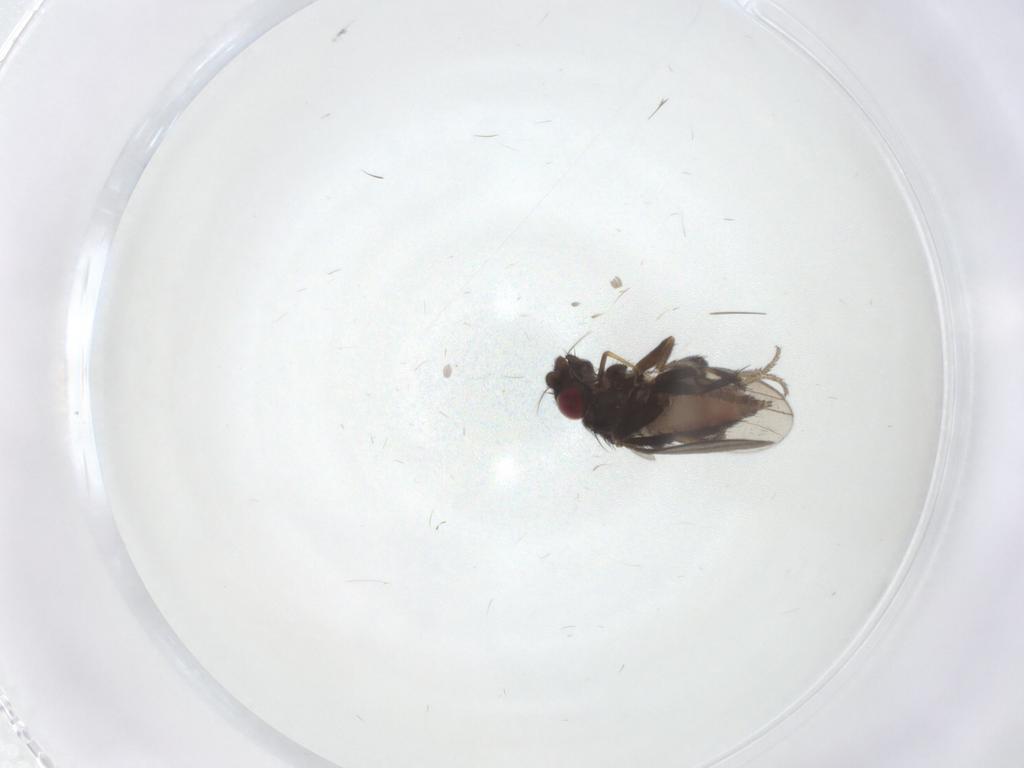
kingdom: Animalia
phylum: Arthropoda
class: Insecta
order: Diptera
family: Milichiidae
